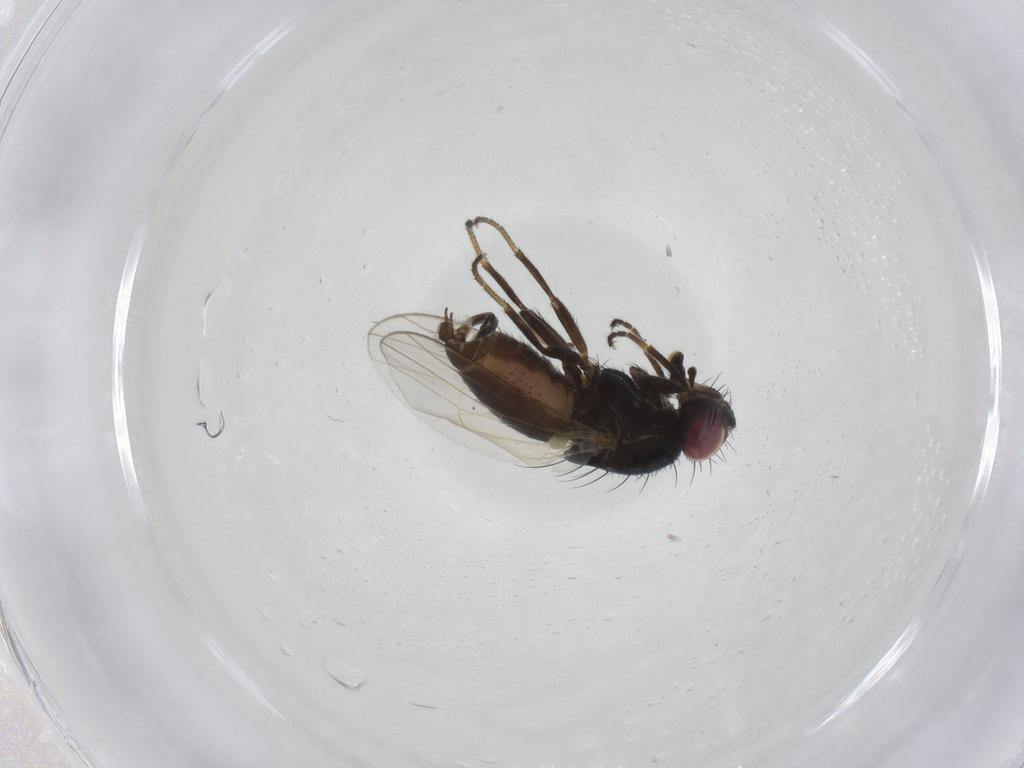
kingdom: Animalia
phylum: Arthropoda
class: Insecta
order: Diptera
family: Carnidae
